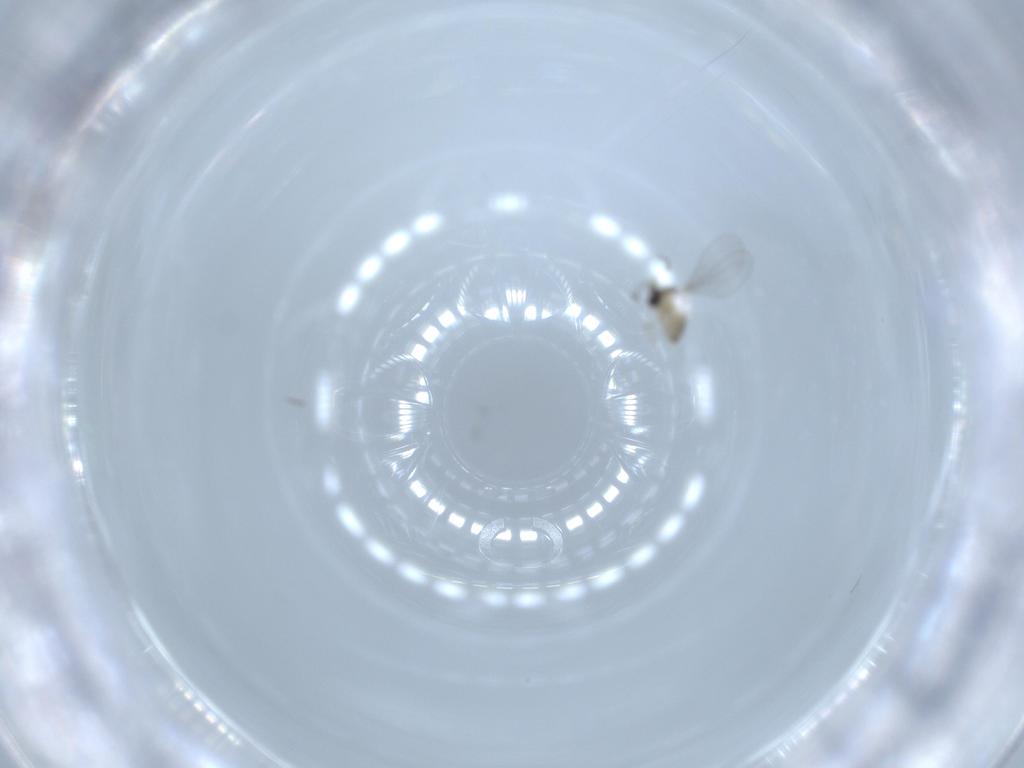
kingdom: Animalia
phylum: Arthropoda
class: Insecta
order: Diptera
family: Cecidomyiidae
